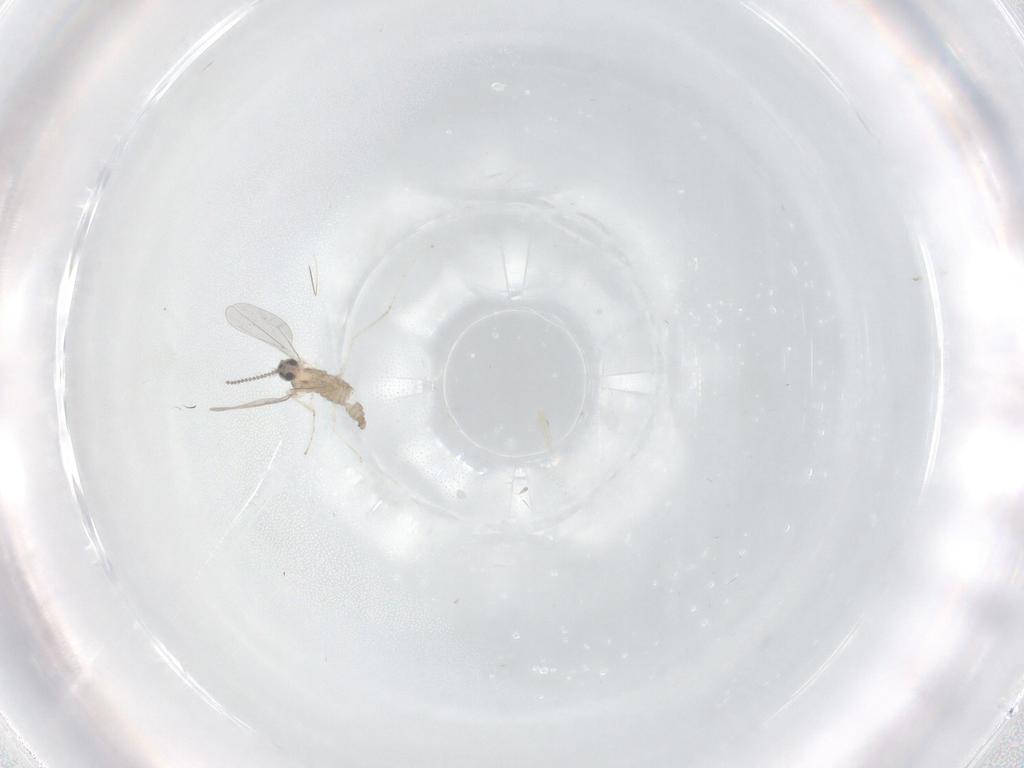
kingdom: Animalia
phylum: Arthropoda
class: Insecta
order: Diptera
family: Cecidomyiidae
